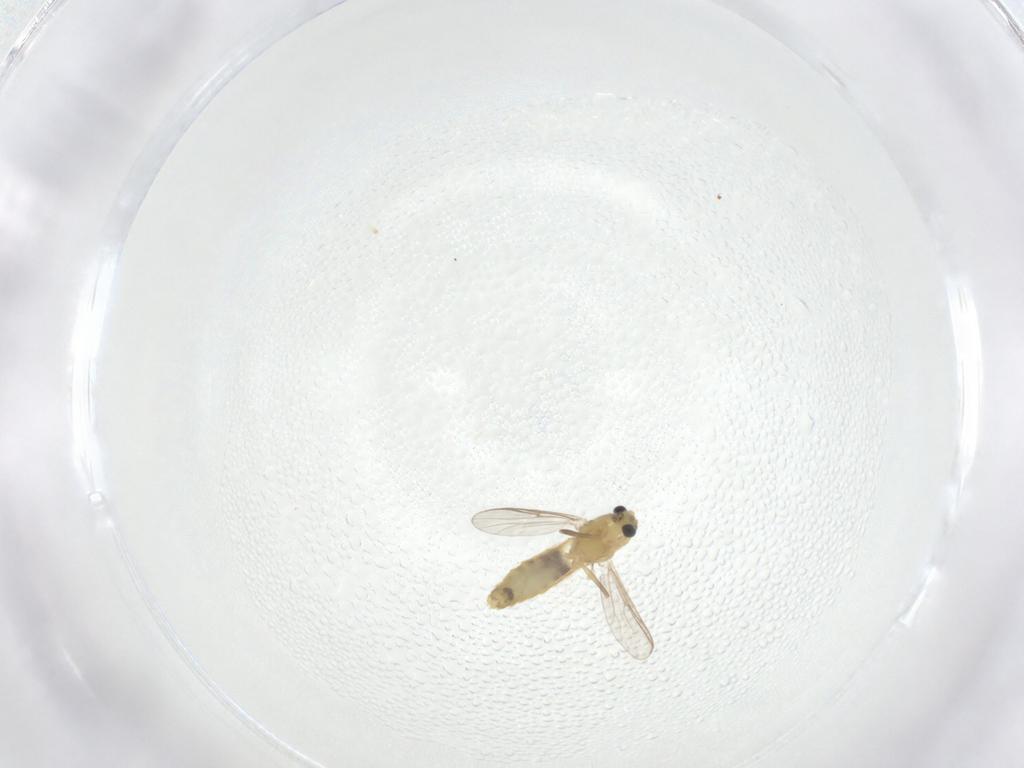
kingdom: Animalia
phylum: Arthropoda
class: Insecta
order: Diptera
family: Chironomidae
